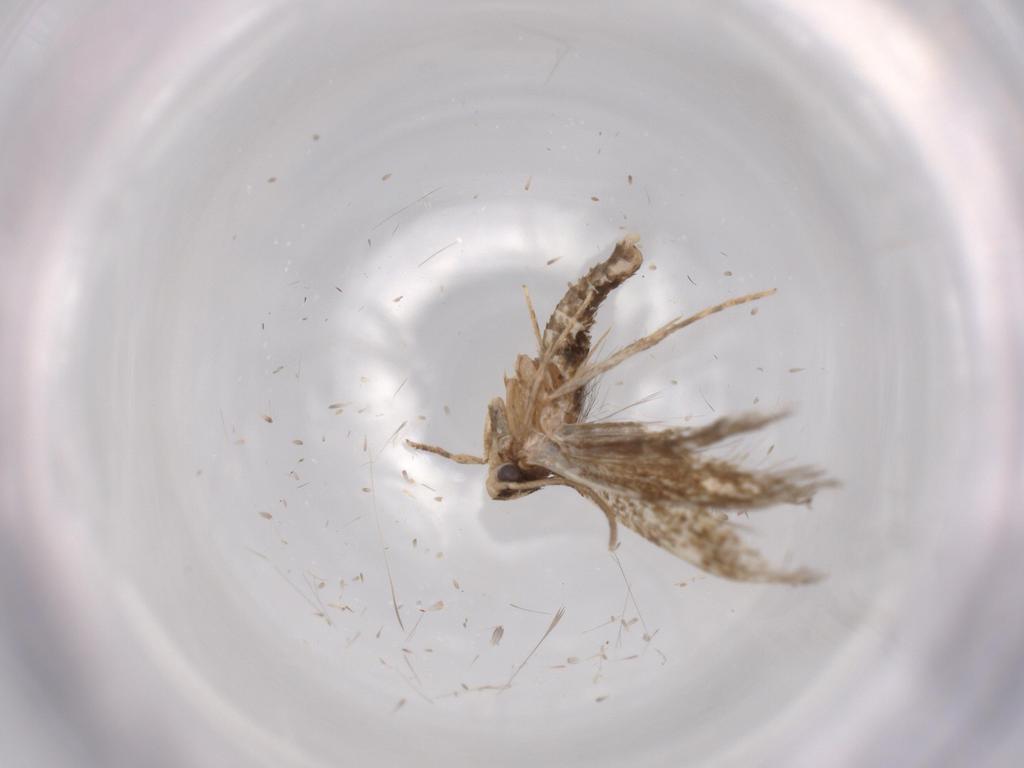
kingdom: Animalia
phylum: Arthropoda
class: Insecta
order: Lepidoptera
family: Tineidae
